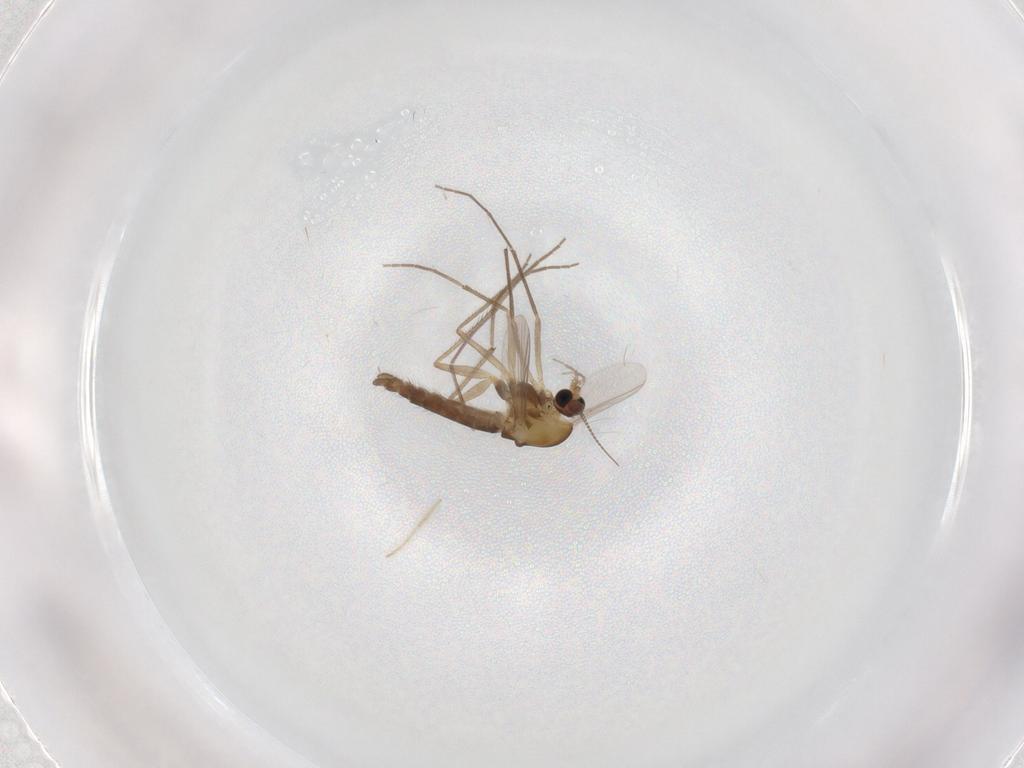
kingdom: Animalia
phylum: Arthropoda
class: Insecta
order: Diptera
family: Chironomidae
